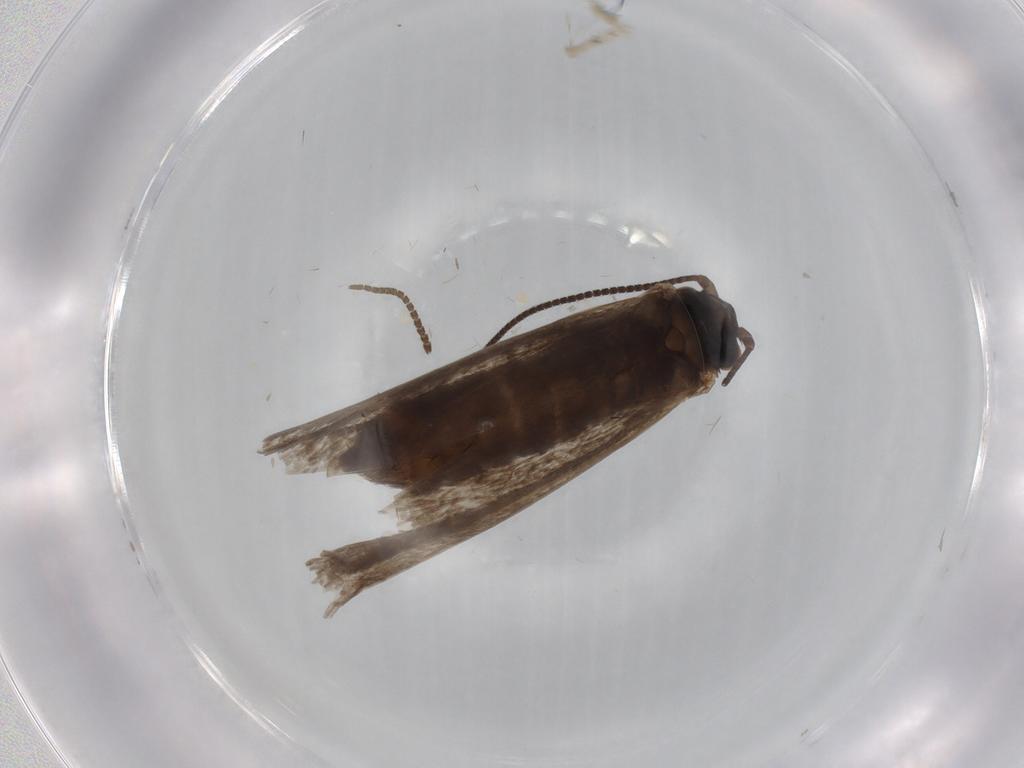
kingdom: Animalia
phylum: Arthropoda
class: Insecta
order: Lepidoptera
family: Micropterigidae
